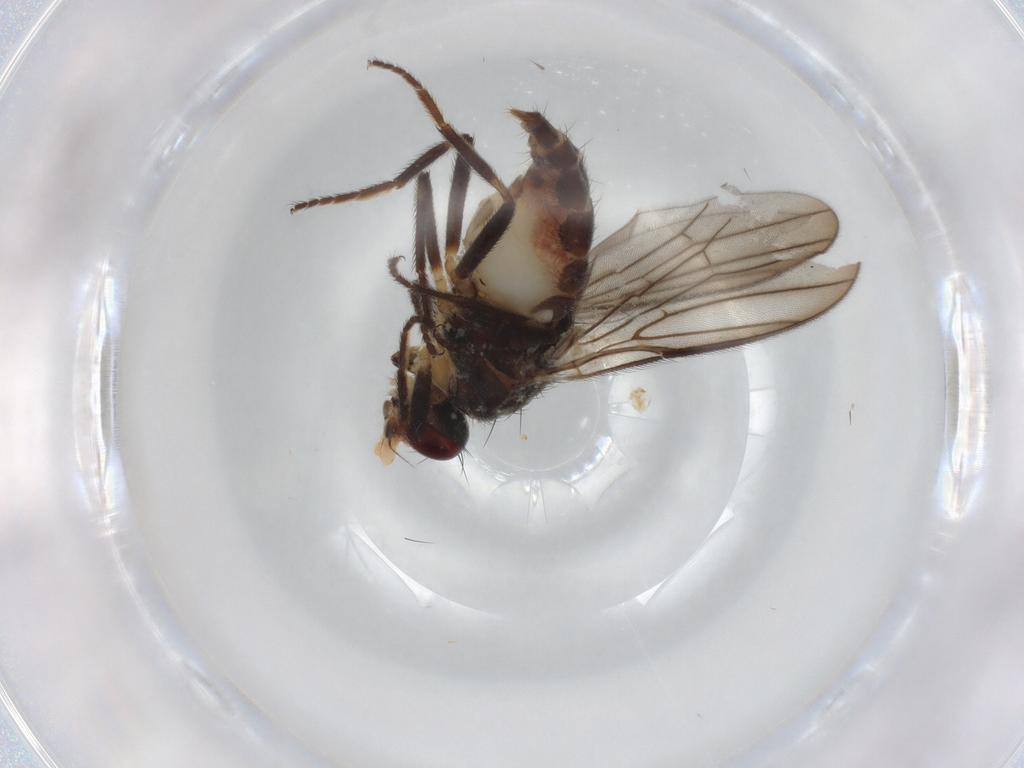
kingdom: Animalia
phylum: Arthropoda
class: Insecta
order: Diptera
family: Chloropidae
